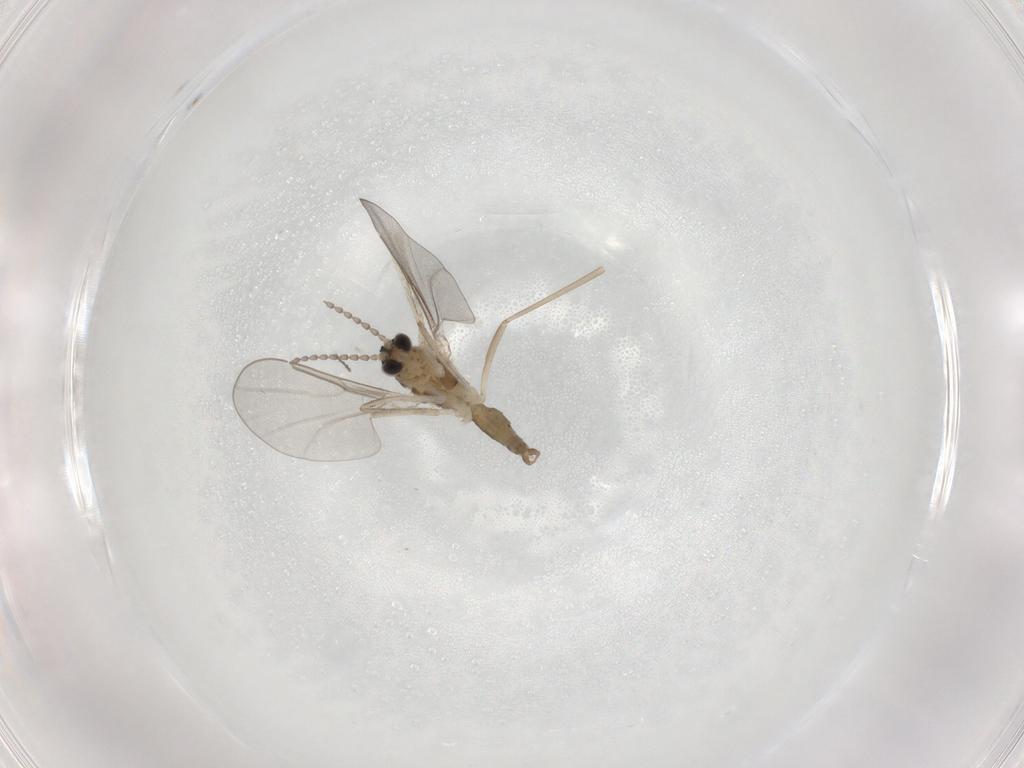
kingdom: Animalia
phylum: Arthropoda
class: Insecta
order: Diptera
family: Cecidomyiidae
